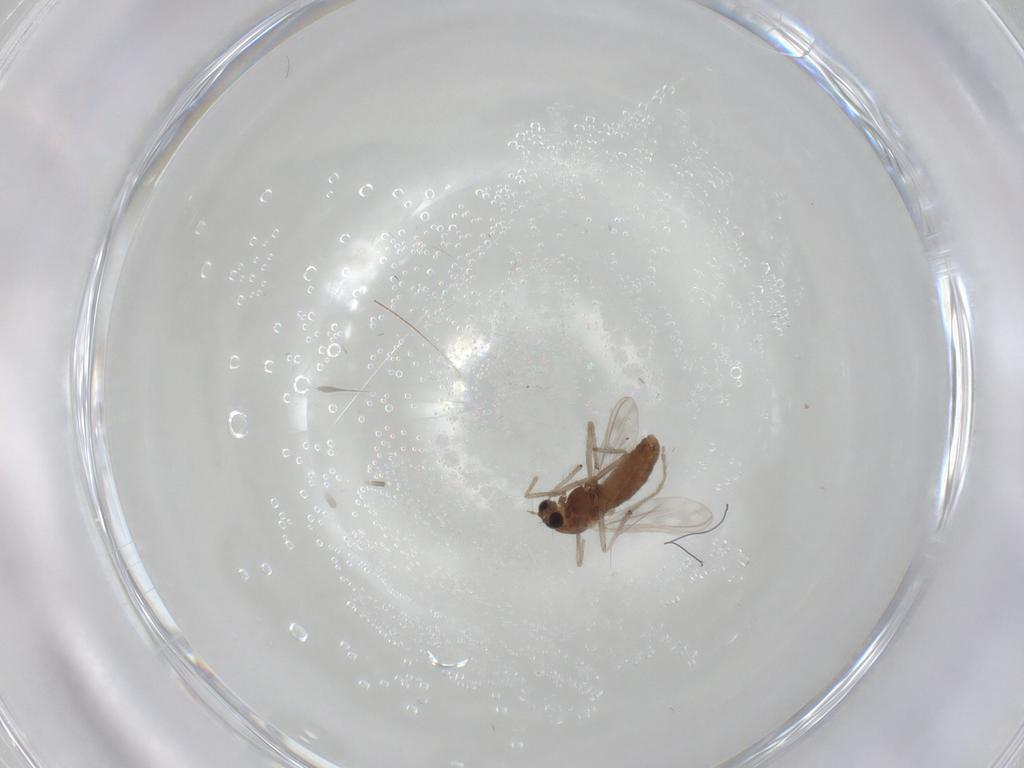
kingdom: Animalia
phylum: Arthropoda
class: Insecta
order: Diptera
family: Chironomidae
